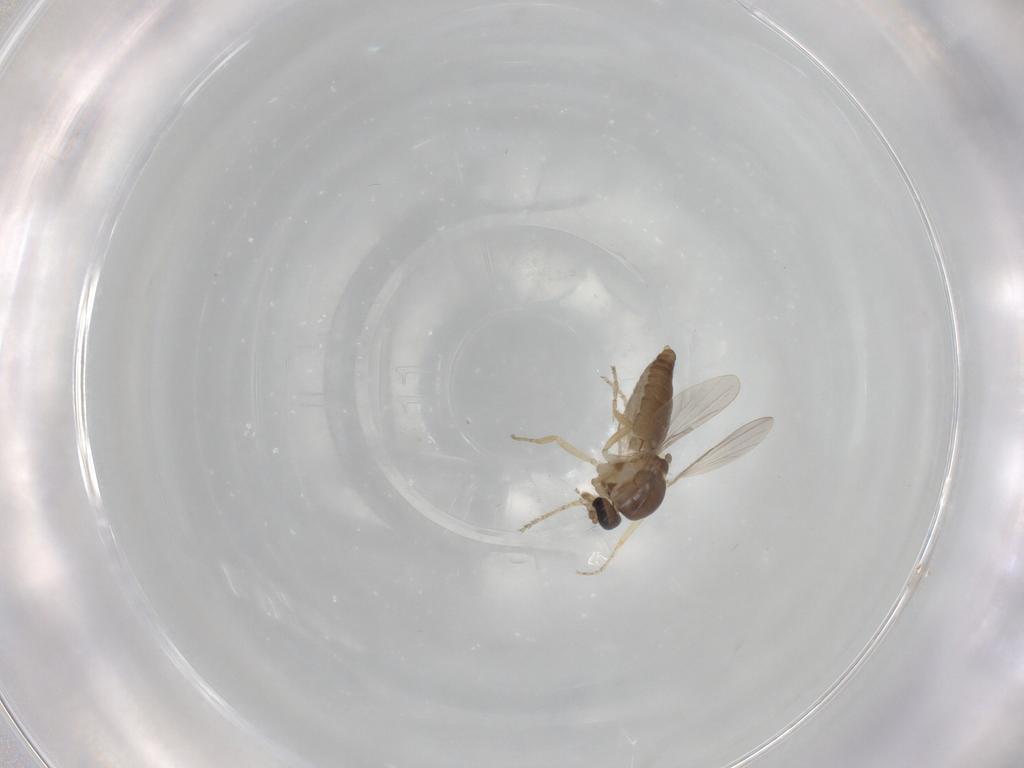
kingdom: Animalia
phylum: Arthropoda
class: Insecta
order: Diptera
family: Ceratopogonidae
